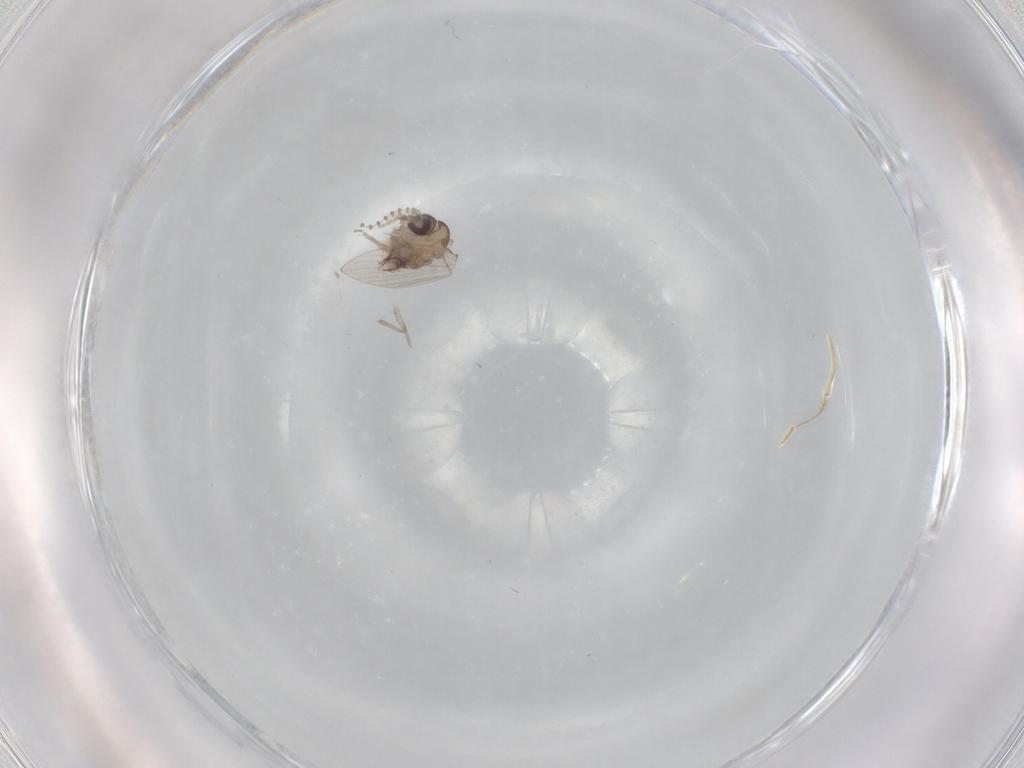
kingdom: Animalia
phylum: Arthropoda
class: Insecta
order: Diptera
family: Psychodidae
